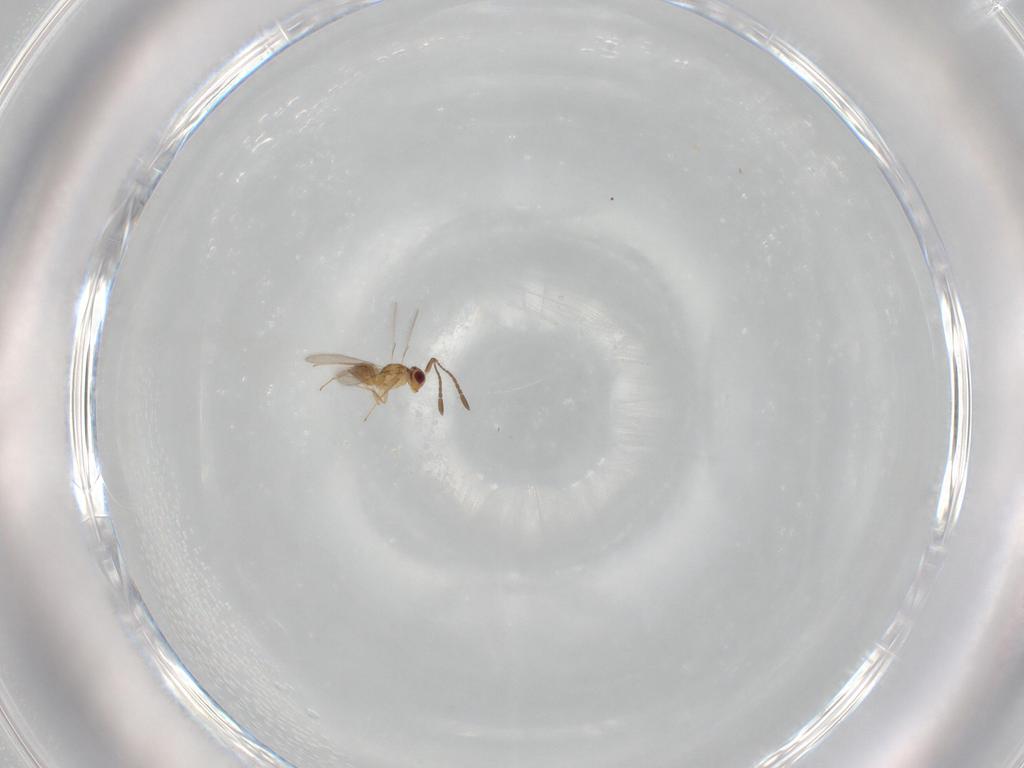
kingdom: Animalia
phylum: Arthropoda
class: Insecta
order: Hymenoptera
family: Mymaridae
